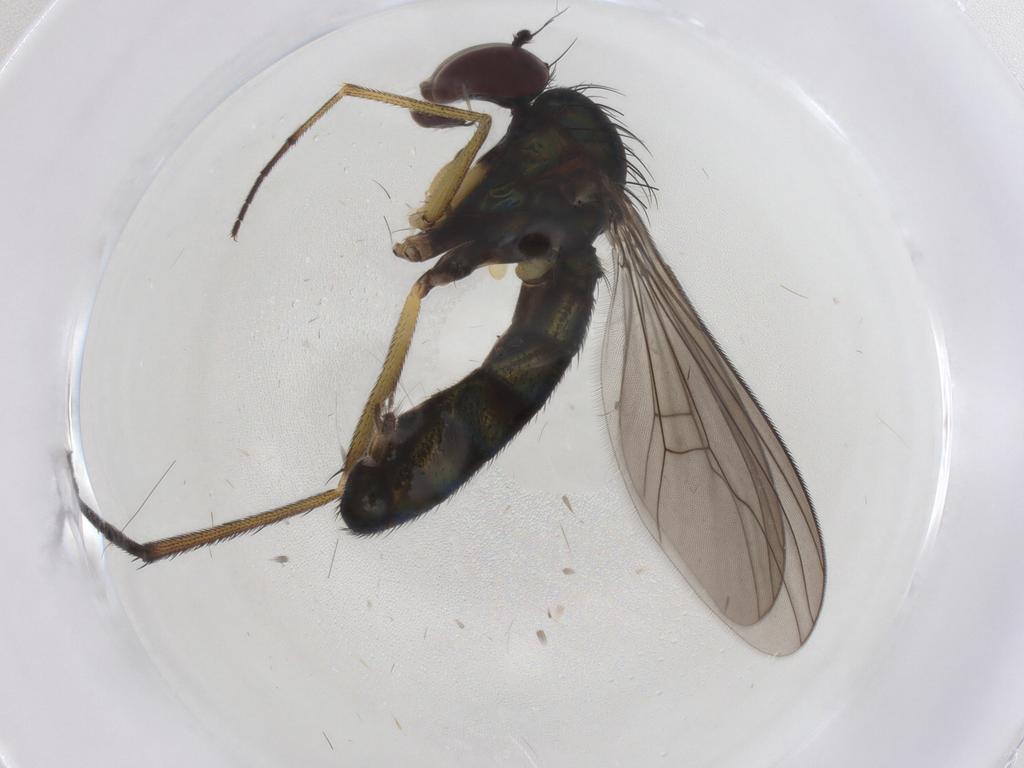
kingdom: Animalia
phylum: Arthropoda
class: Insecta
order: Diptera
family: Dolichopodidae
